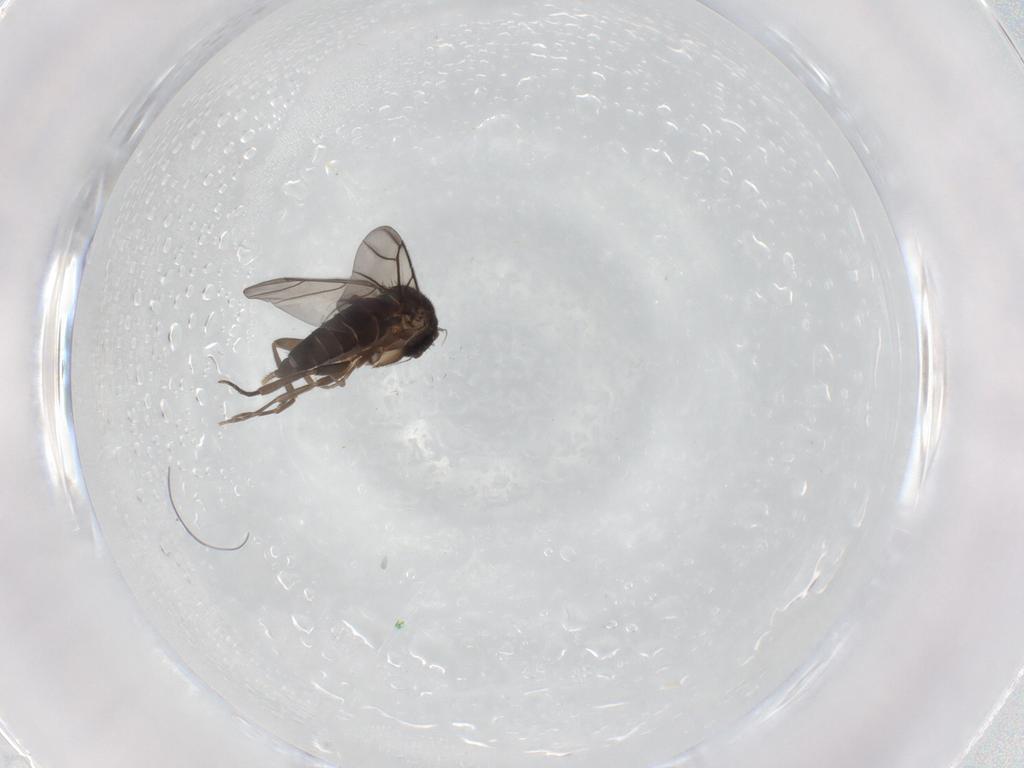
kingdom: Animalia
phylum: Arthropoda
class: Insecta
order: Diptera
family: Cecidomyiidae
